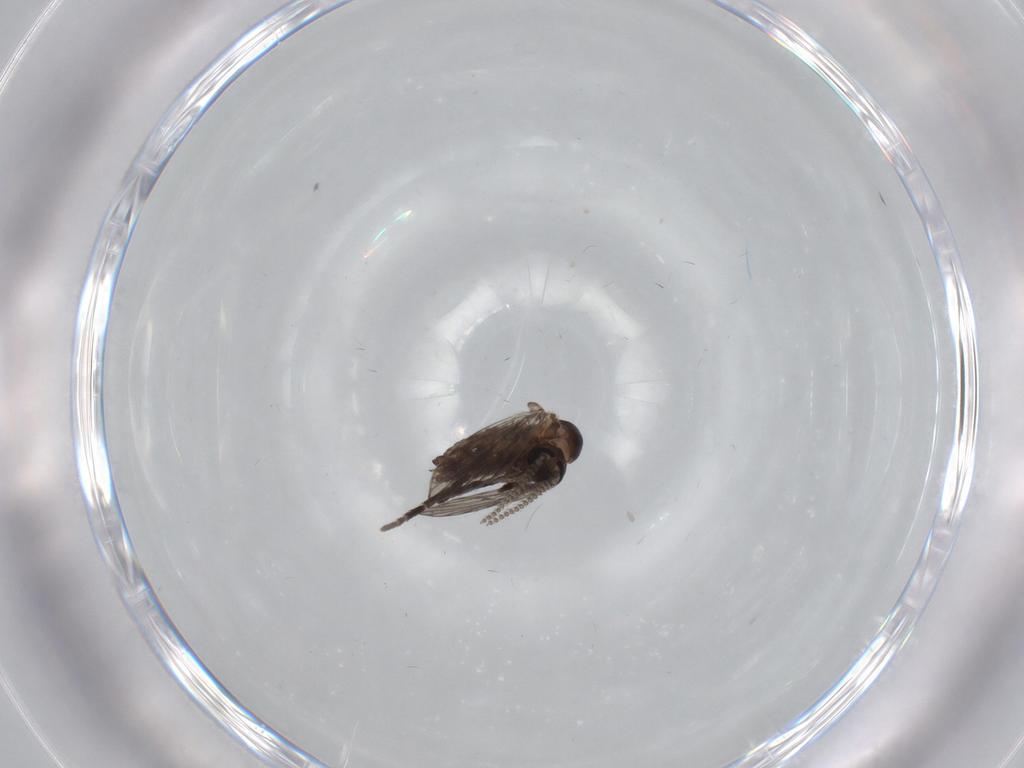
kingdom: Animalia
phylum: Arthropoda
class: Insecta
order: Diptera
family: Psychodidae
